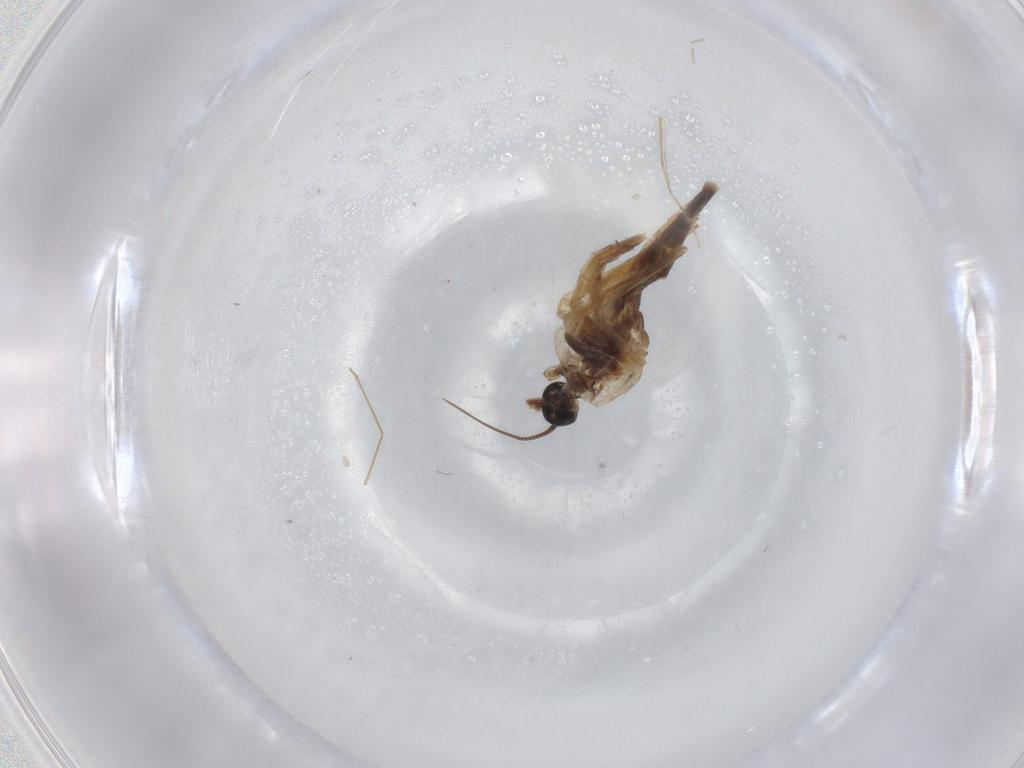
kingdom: Animalia
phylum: Arthropoda
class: Insecta
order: Diptera
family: Chironomidae
